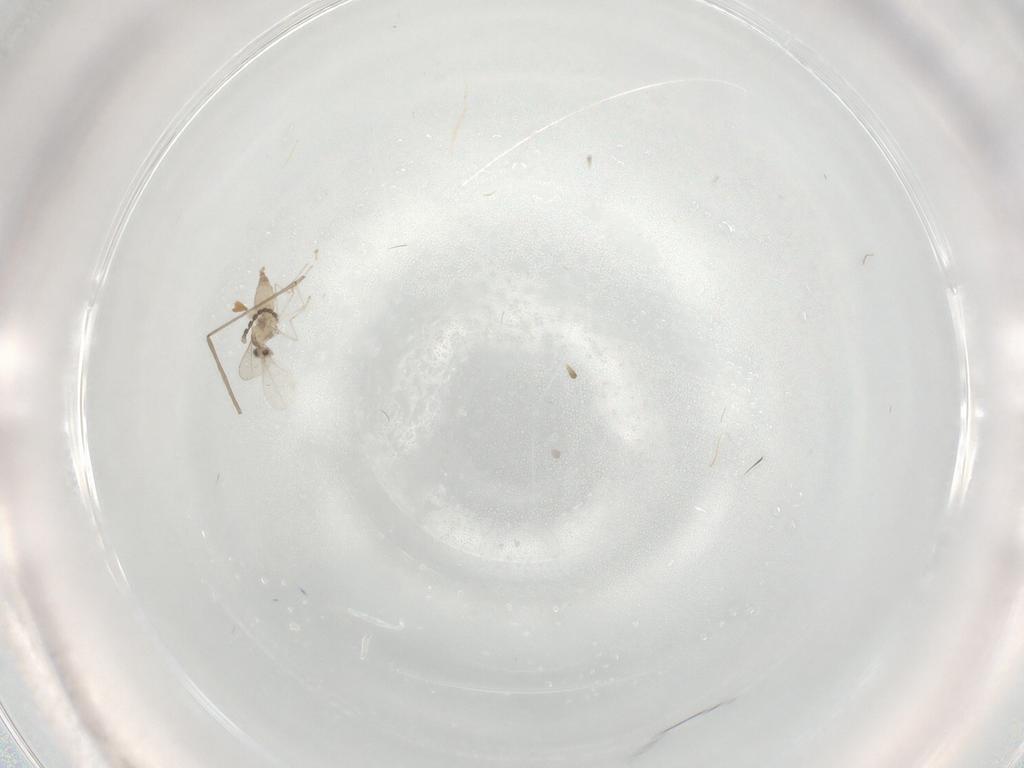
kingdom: Animalia
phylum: Arthropoda
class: Insecta
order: Diptera
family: Cecidomyiidae
